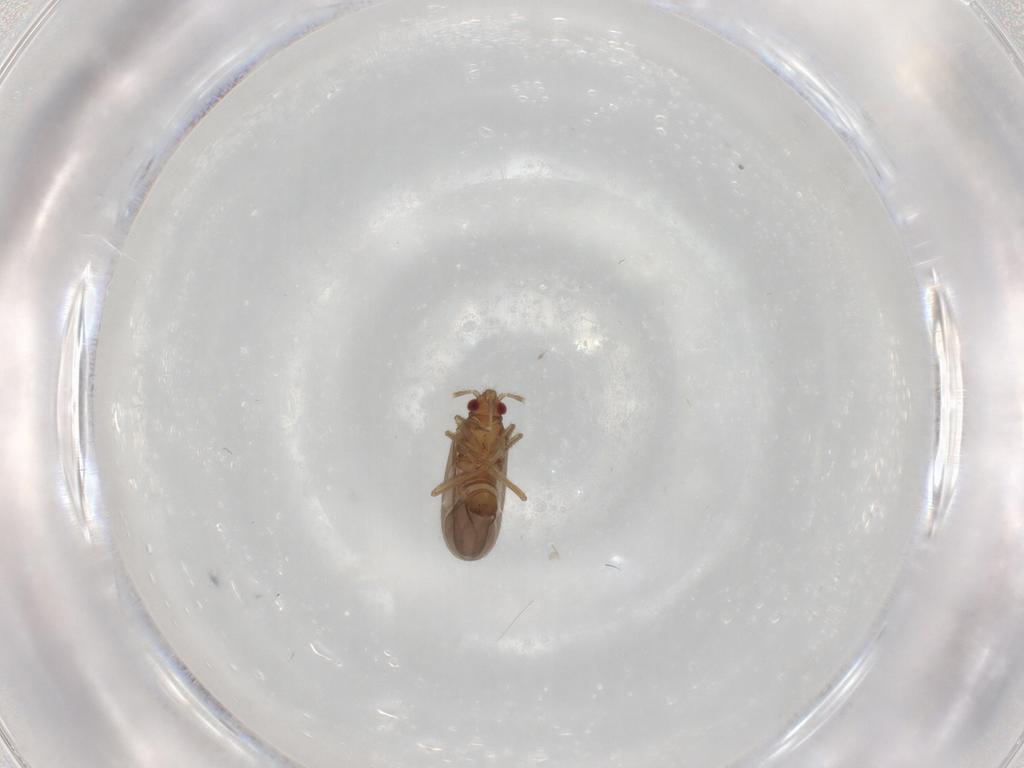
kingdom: Animalia
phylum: Arthropoda
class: Insecta
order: Hemiptera
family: Ceratocombidae
